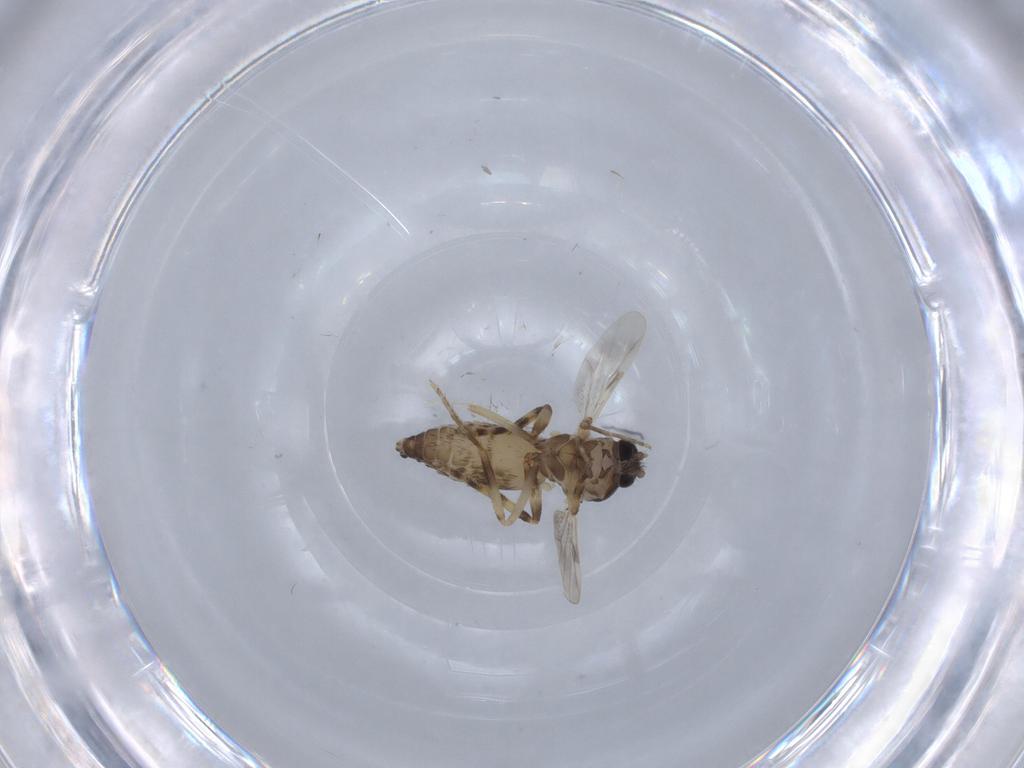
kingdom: Animalia
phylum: Arthropoda
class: Insecta
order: Diptera
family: Ceratopogonidae
